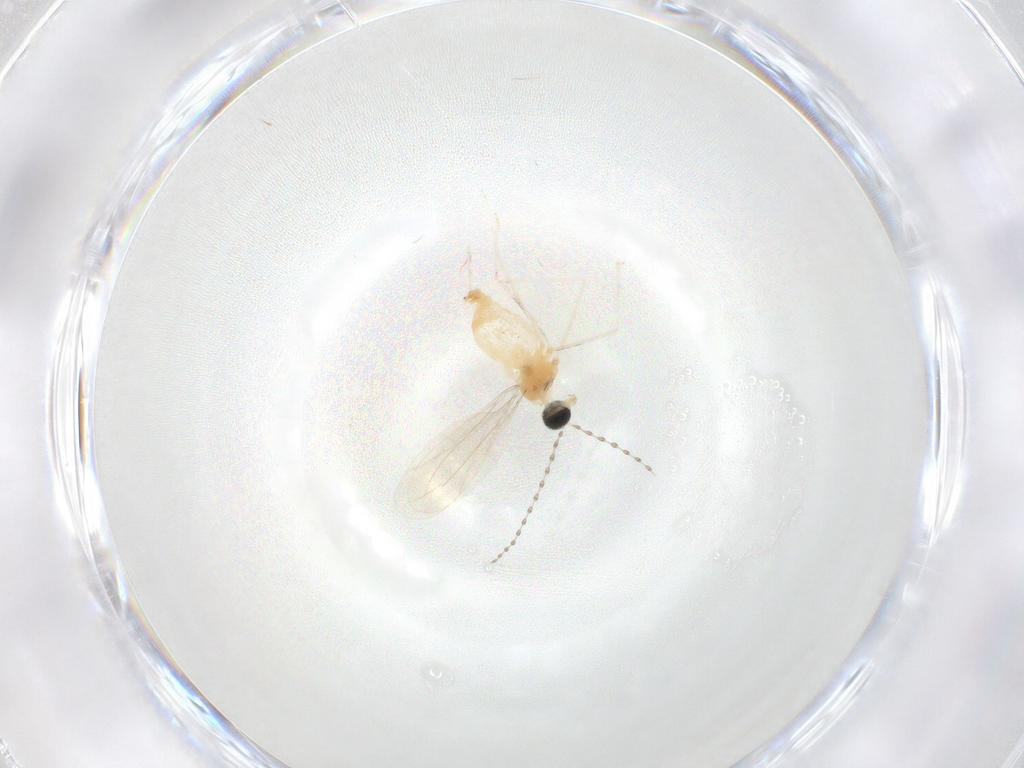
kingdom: Animalia
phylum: Arthropoda
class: Insecta
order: Diptera
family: Cecidomyiidae
